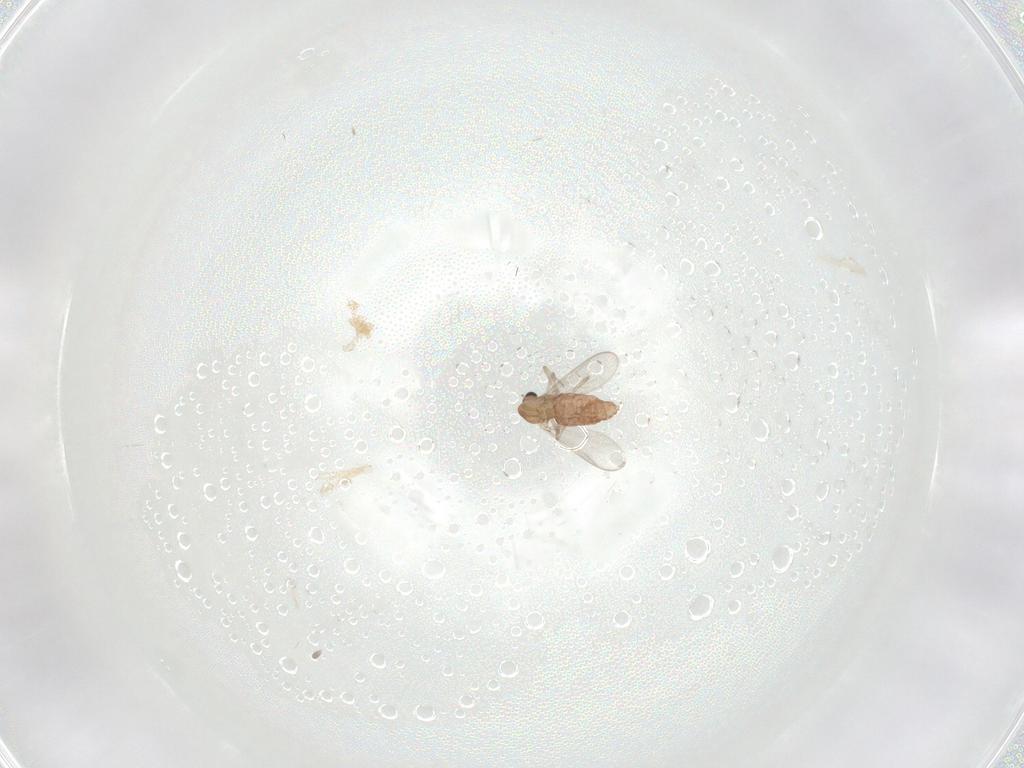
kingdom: Animalia
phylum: Arthropoda
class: Insecta
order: Diptera
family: Chironomidae
